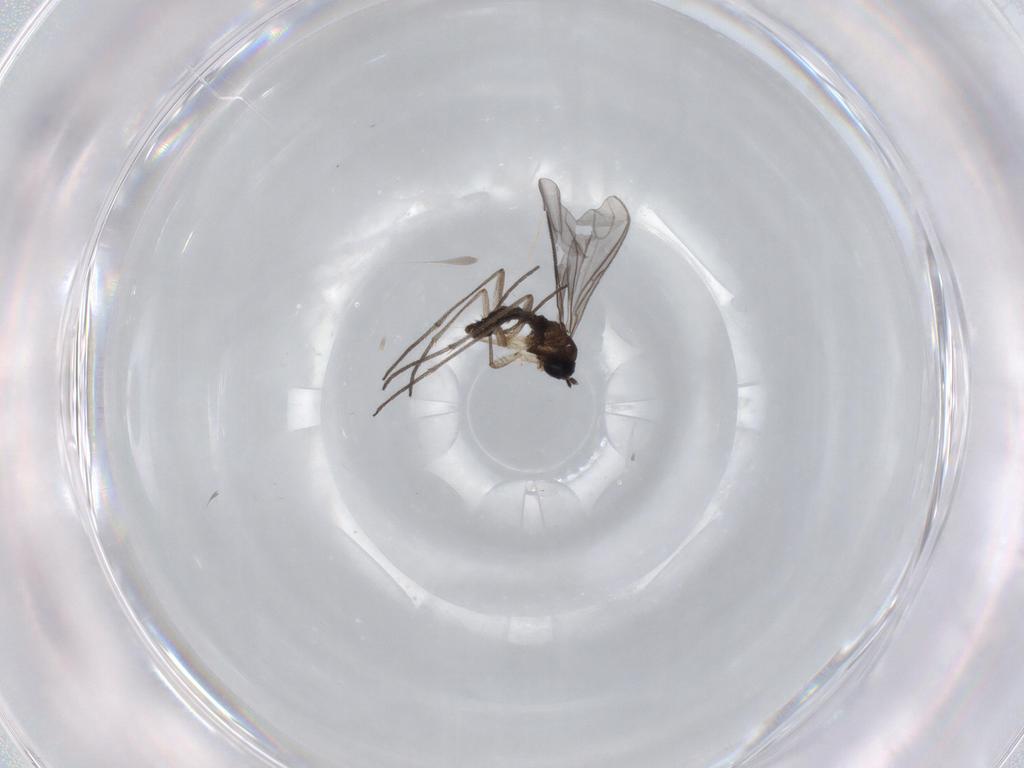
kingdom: Animalia
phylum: Arthropoda
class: Insecta
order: Diptera
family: Sciaridae
